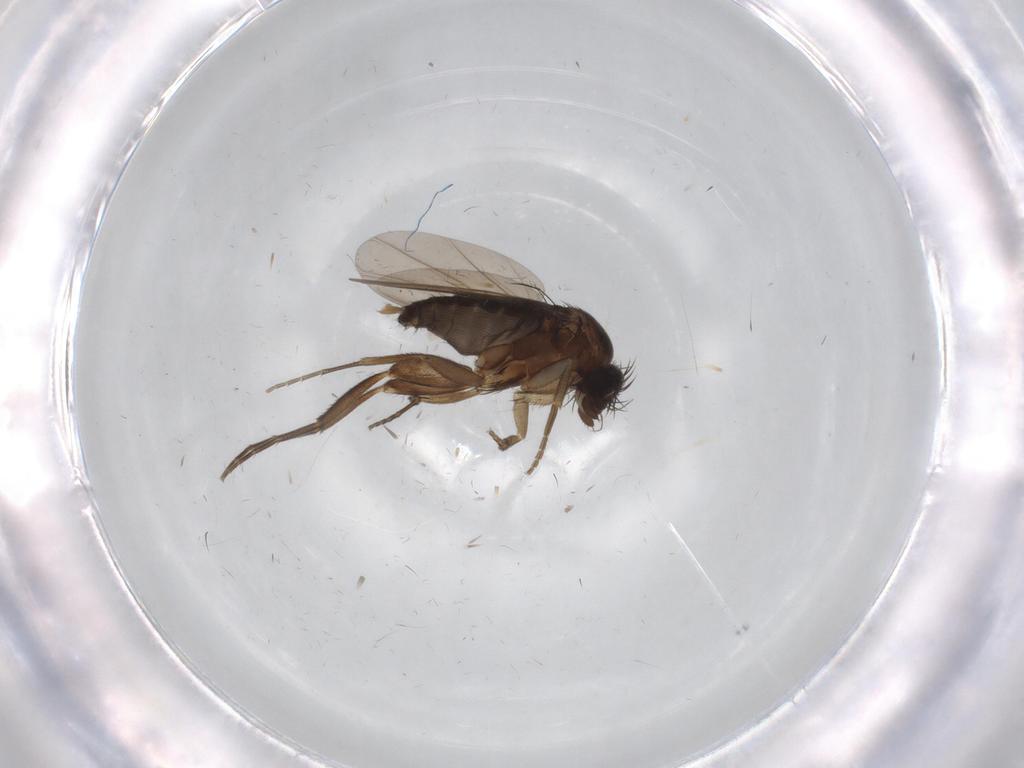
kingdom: Animalia
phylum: Arthropoda
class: Insecta
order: Diptera
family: Phoridae
